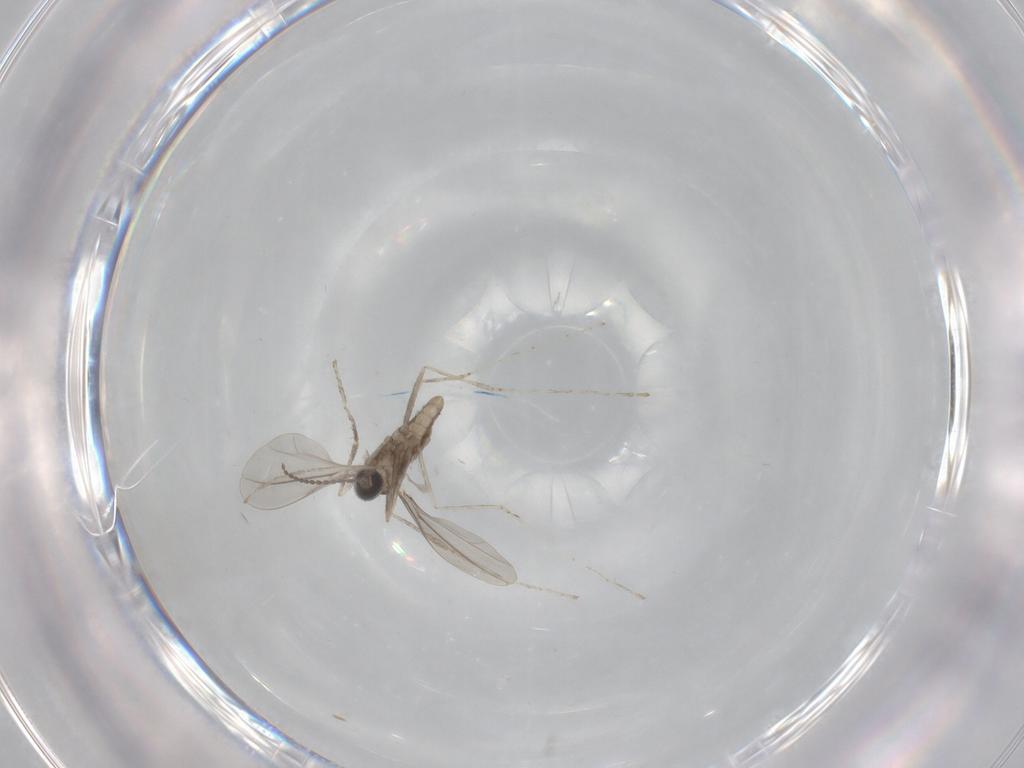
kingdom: Animalia
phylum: Arthropoda
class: Insecta
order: Diptera
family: Cecidomyiidae
